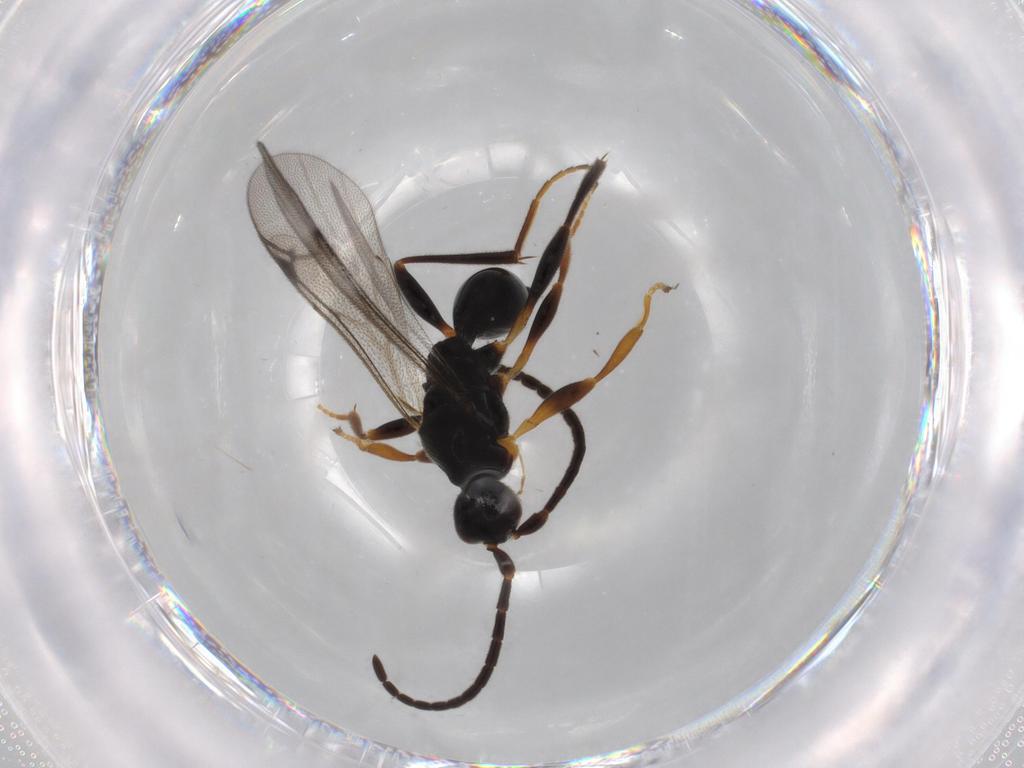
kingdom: Animalia
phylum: Arthropoda
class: Insecta
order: Hymenoptera
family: Proctotrupidae
